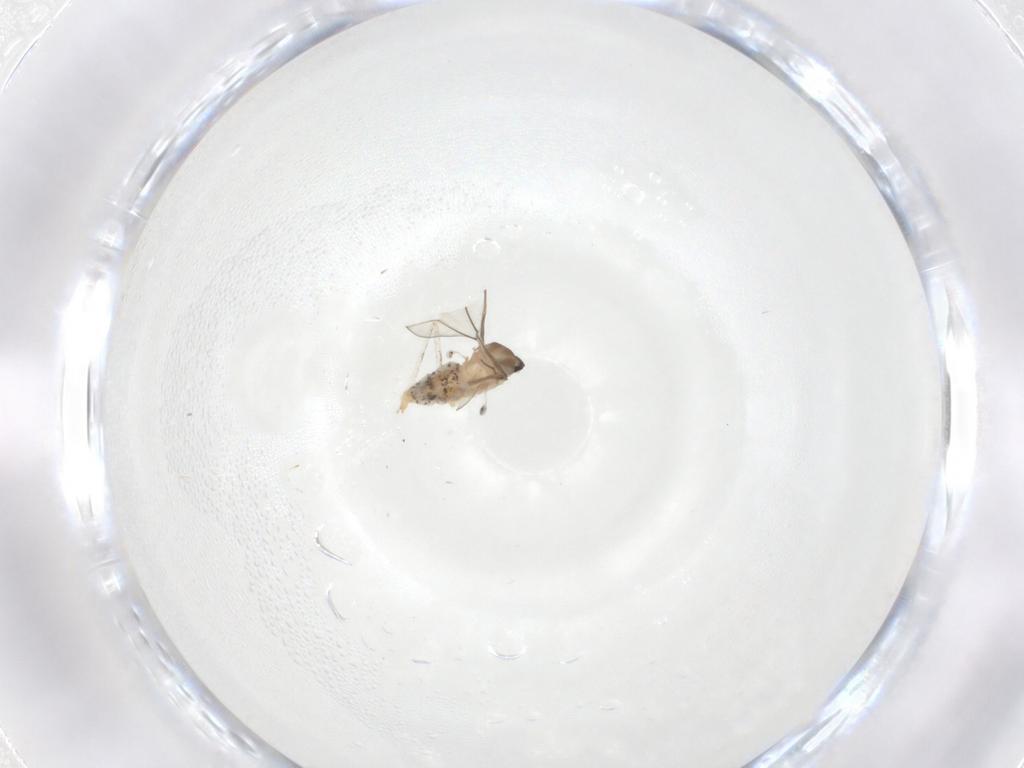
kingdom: Animalia
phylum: Arthropoda
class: Insecta
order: Diptera
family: Cecidomyiidae
